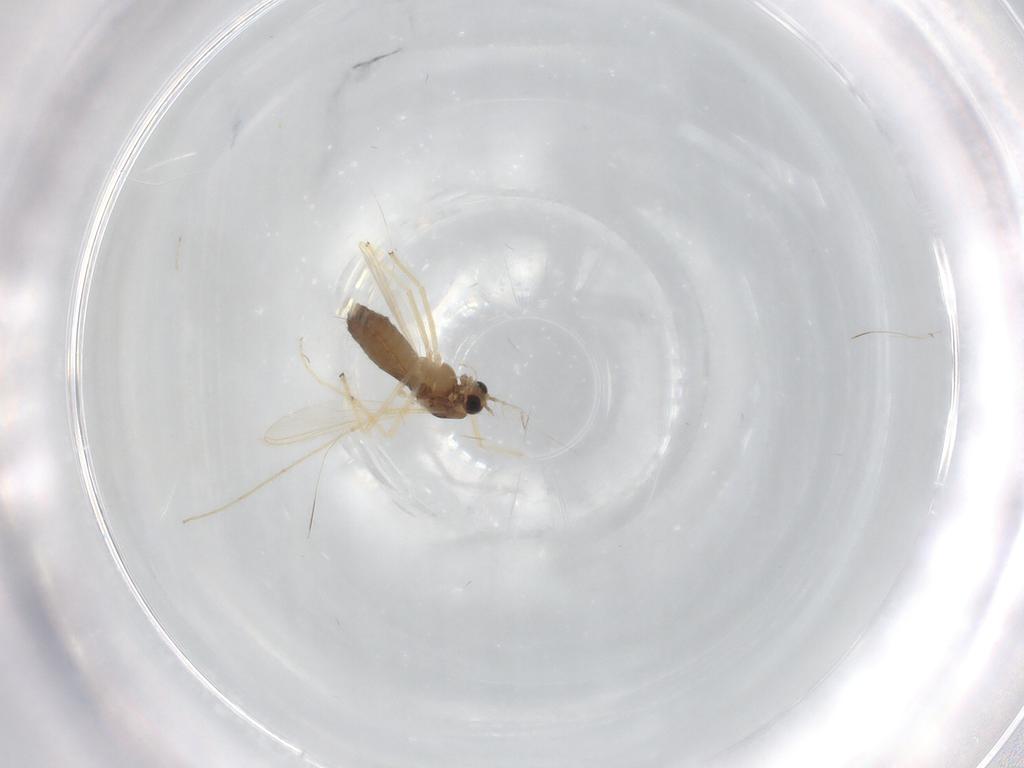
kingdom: Animalia
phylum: Arthropoda
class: Insecta
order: Diptera
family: Chironomidae
